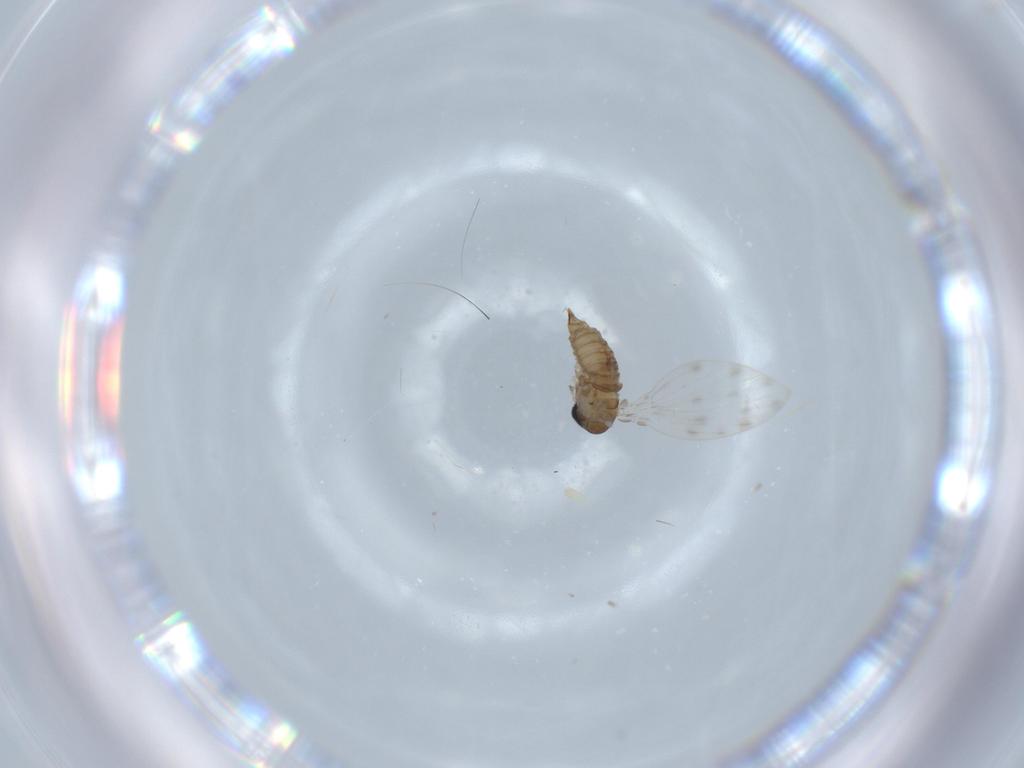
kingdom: Animalia
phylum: Arthropoda
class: Insecta
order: Diptera
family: Psychodidae
